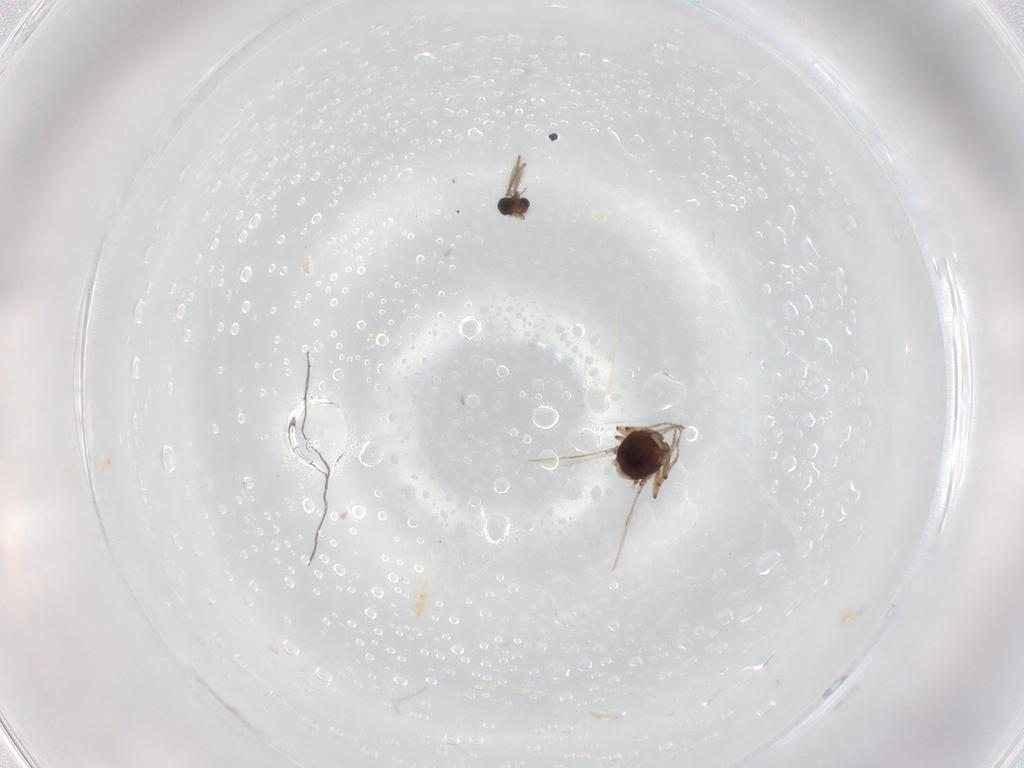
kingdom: Animalia
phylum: Arthropoda
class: Insecta
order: Diptera
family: Ceratopogonidae
